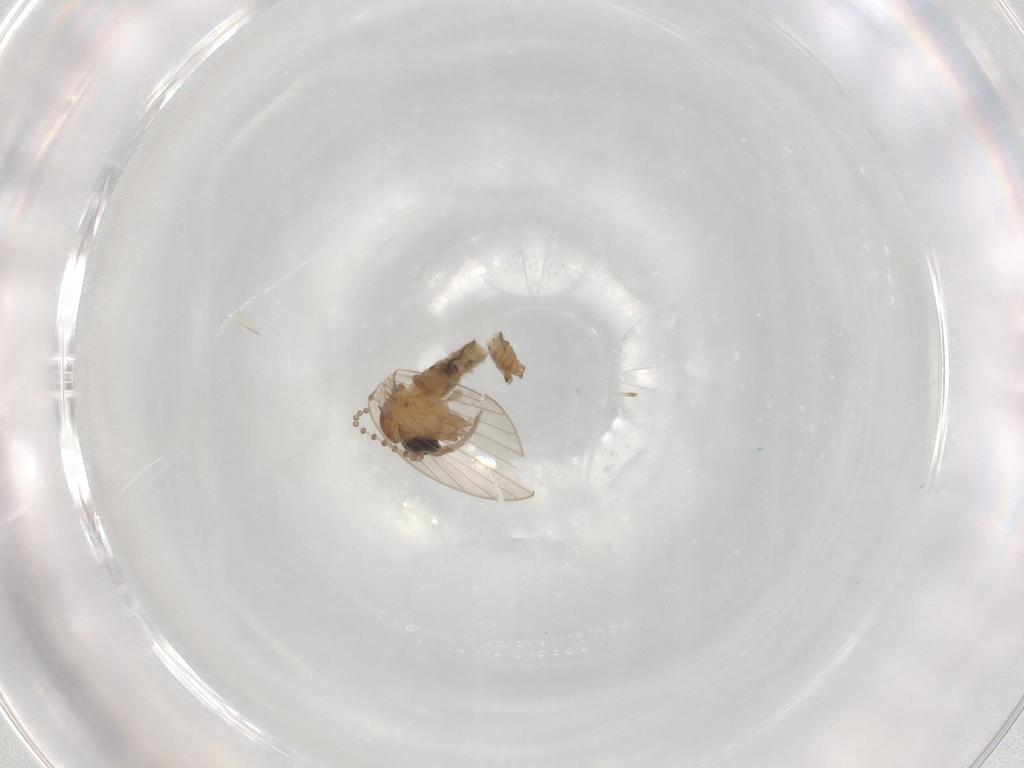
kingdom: Animalia
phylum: Arthropoda
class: Insecta
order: Diptera
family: Psychodidae
